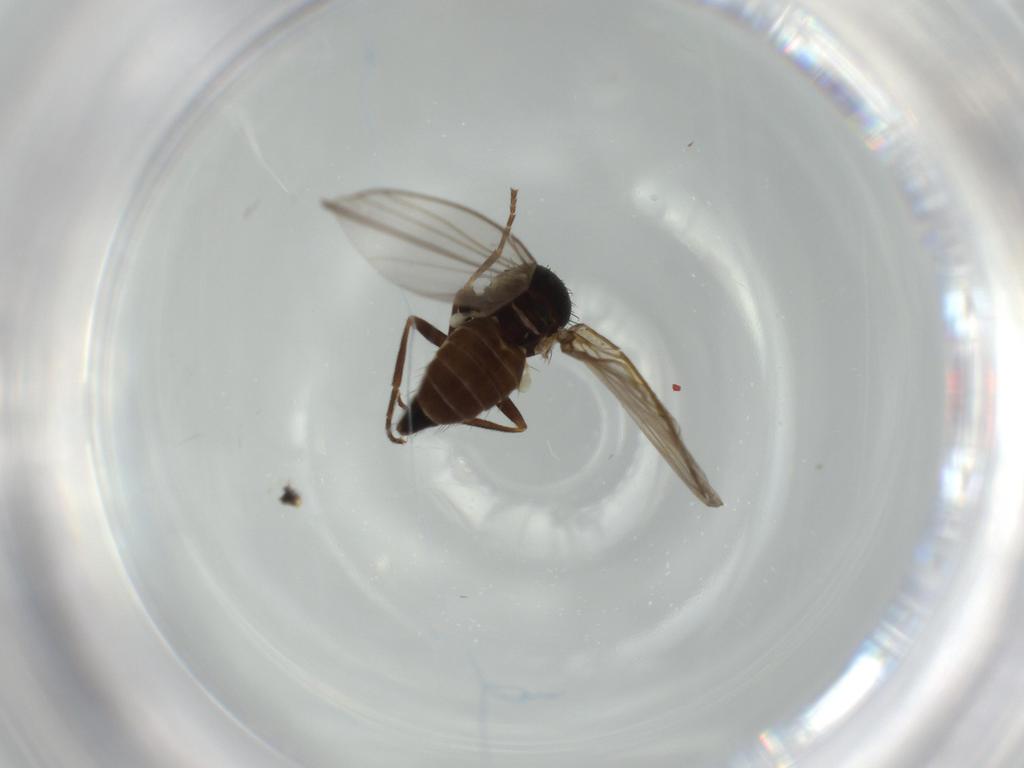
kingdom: Animalia
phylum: Arthropoda
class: Insecta
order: Diptera
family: Agromyzidae
